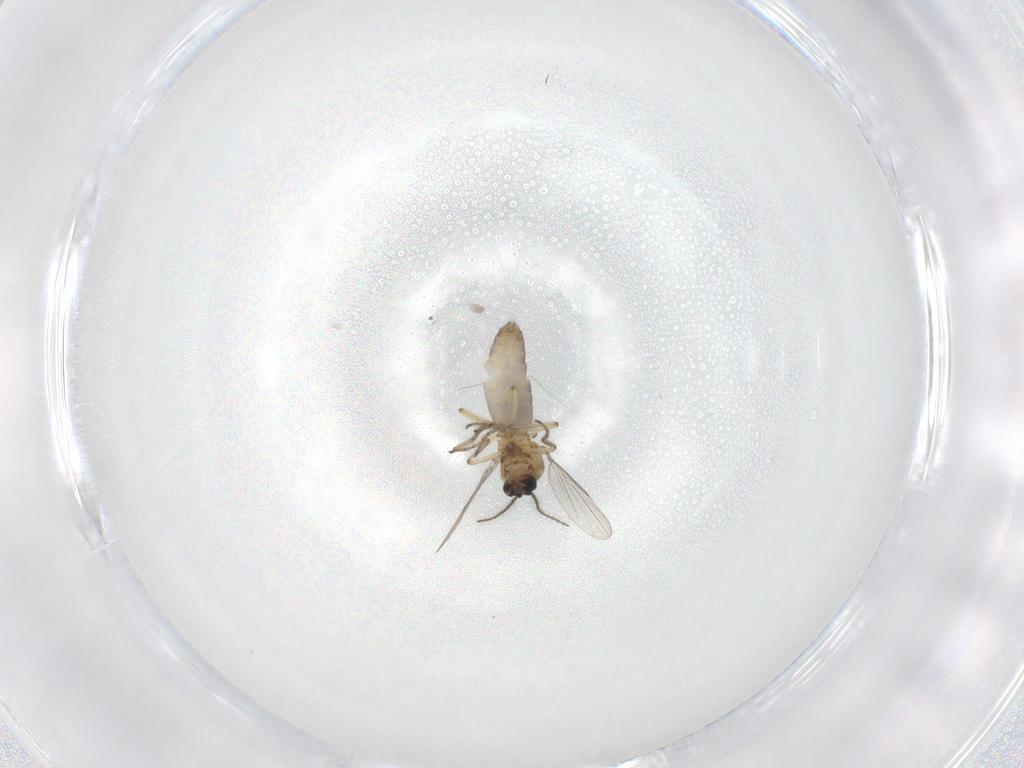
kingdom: Animalia
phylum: Arthropoda
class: Insecta
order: Diptera
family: Ceratopogonidae
